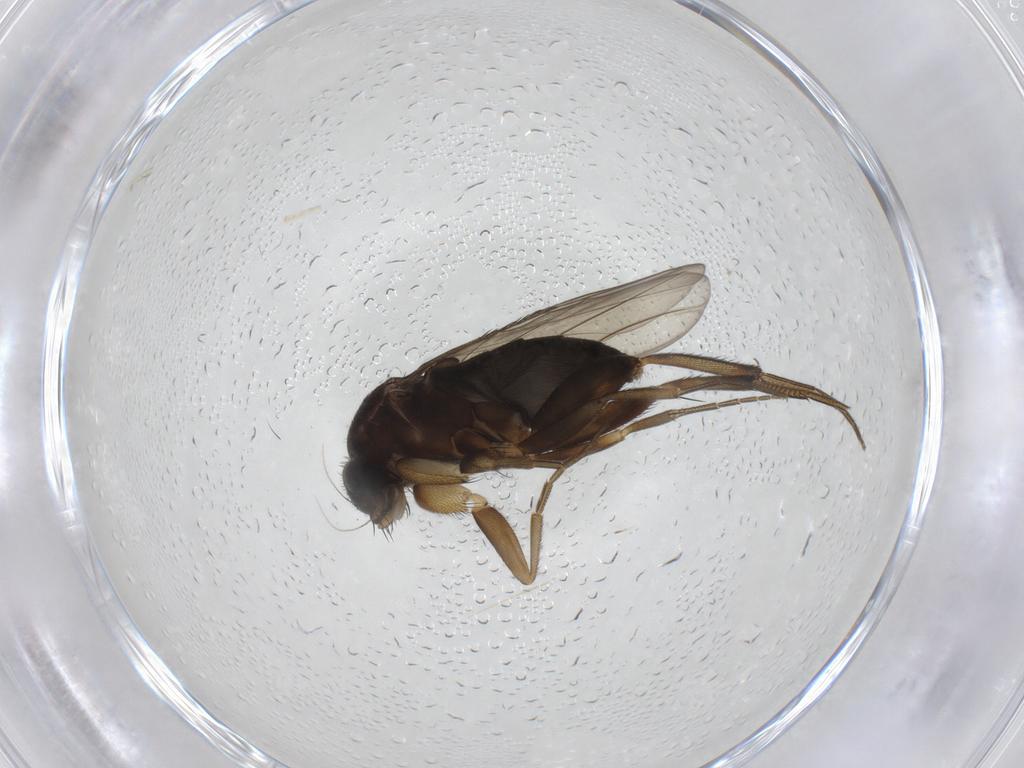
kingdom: Animalia
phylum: Arthropoda
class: Insecta
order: Diptera
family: Phoridae
